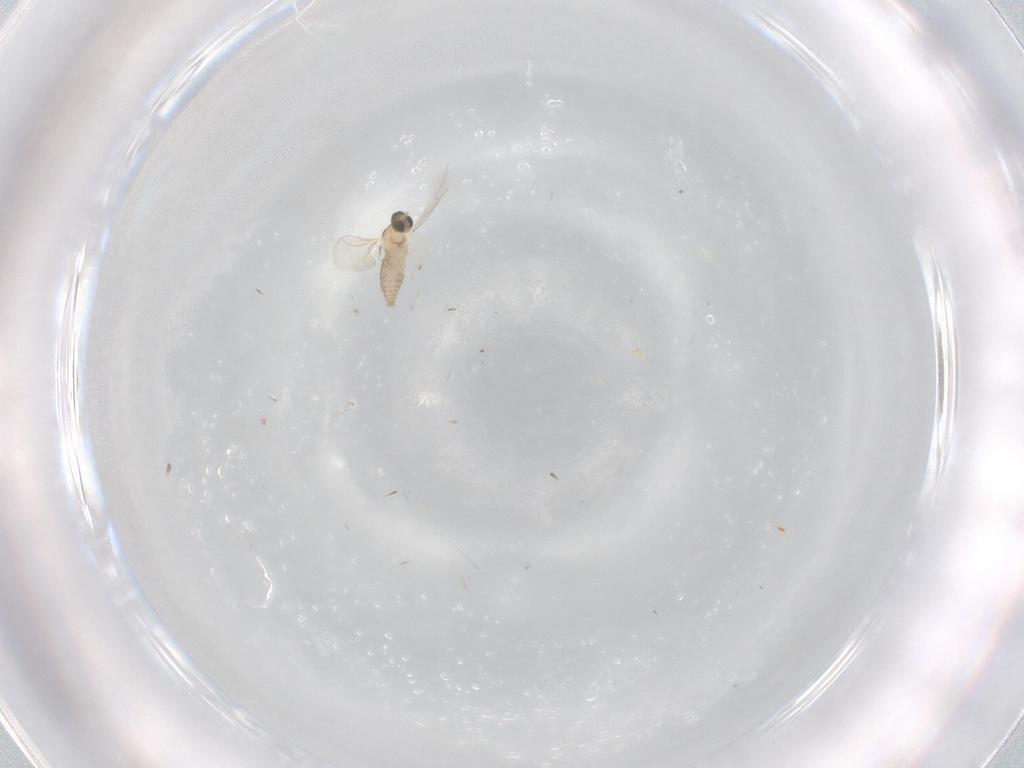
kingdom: Animalia
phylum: Arthropoda
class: Insecta
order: Diptera
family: Cecidomyiidae
